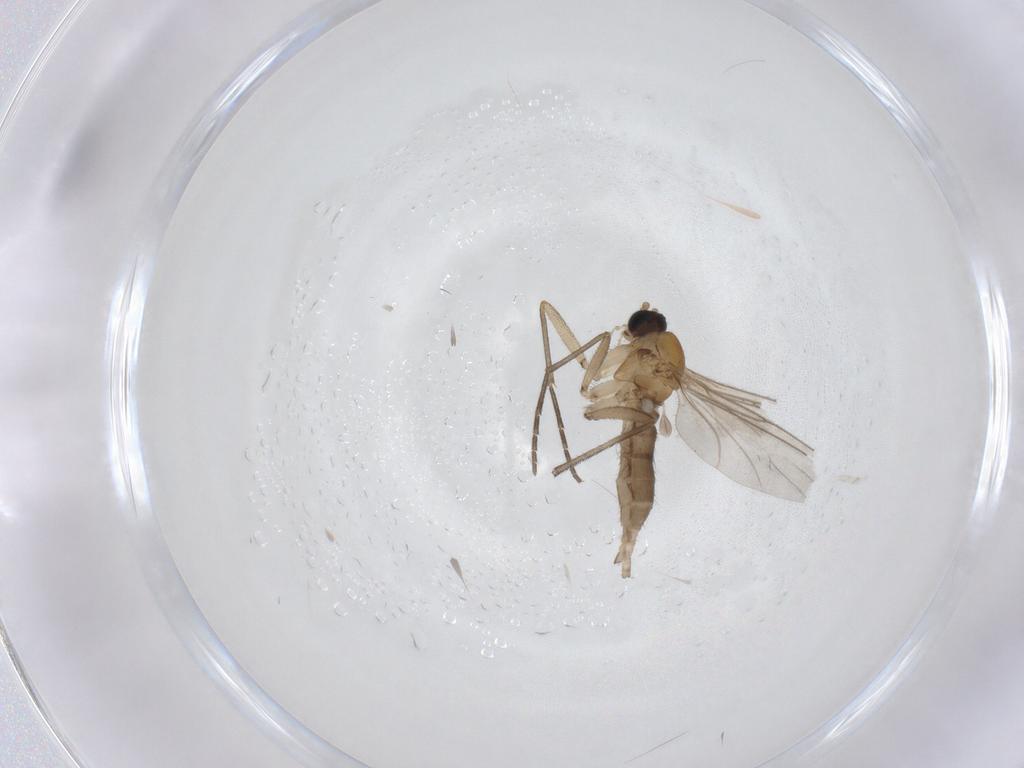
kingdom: Animalia
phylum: Arthropoda
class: Insecta
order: Diptera
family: Sciaridae
